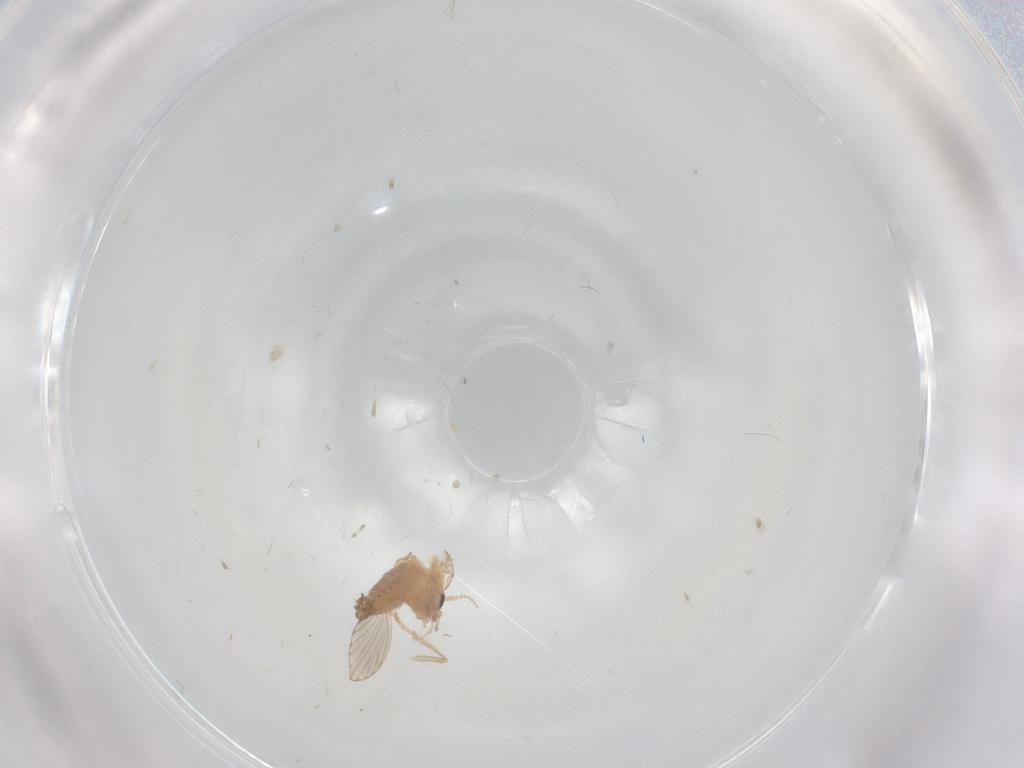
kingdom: Animalia
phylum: Arthropoda
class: Insecta
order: Diptera
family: Psychodidae
